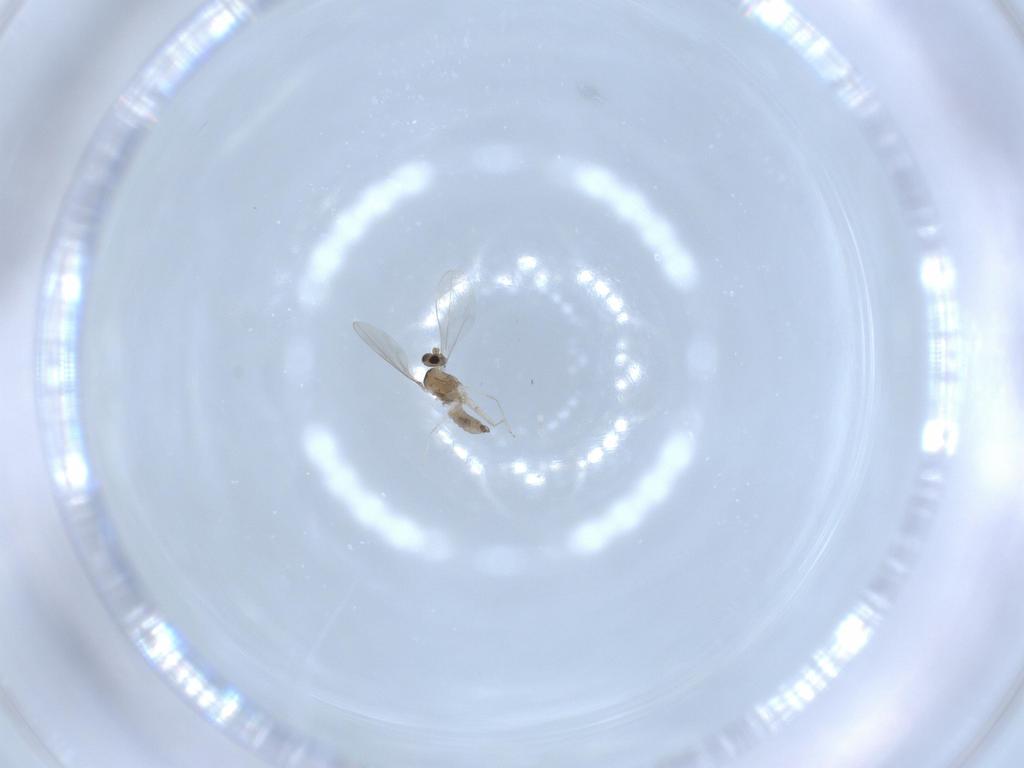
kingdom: Animalia
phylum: Arthropoda
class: Insecta
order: Diptera
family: Cecidomyiidae
